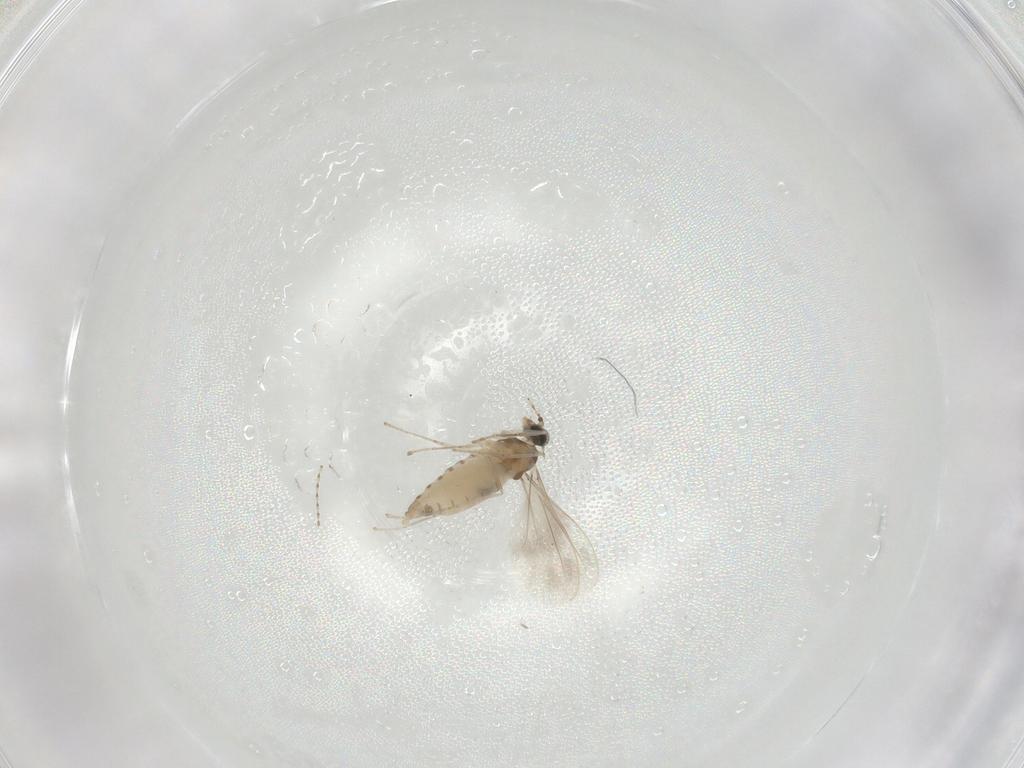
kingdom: Animalia
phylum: Arthropoda
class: Insecta
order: Diptera
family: Cecidomyiidae
